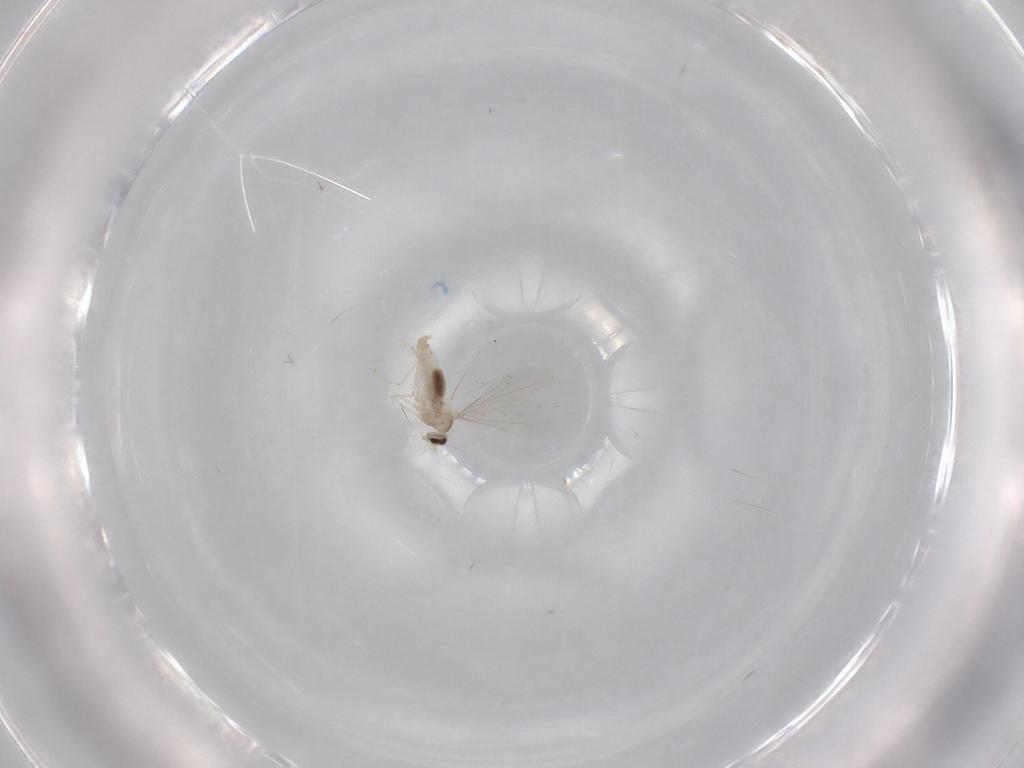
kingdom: Animalia
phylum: Arthropoda
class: Insecta
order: Diptera
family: Cecidomyiidae
